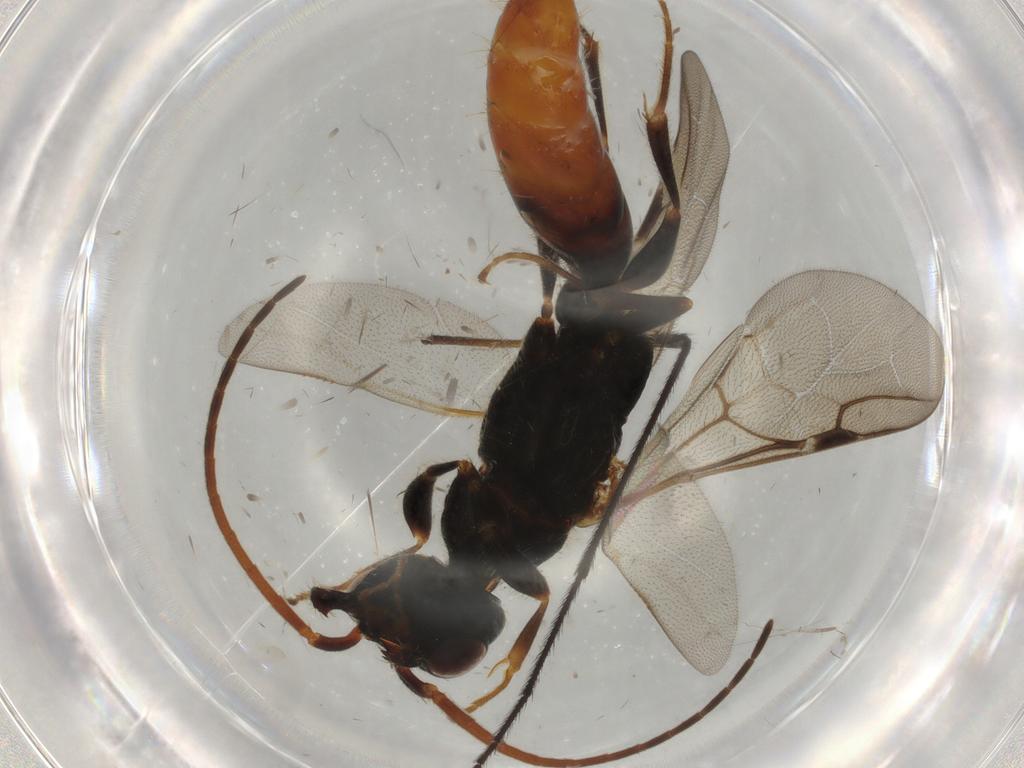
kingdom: Animalia
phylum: Arthropoda
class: Insecta
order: Hymenoptera
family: Bethylidae
